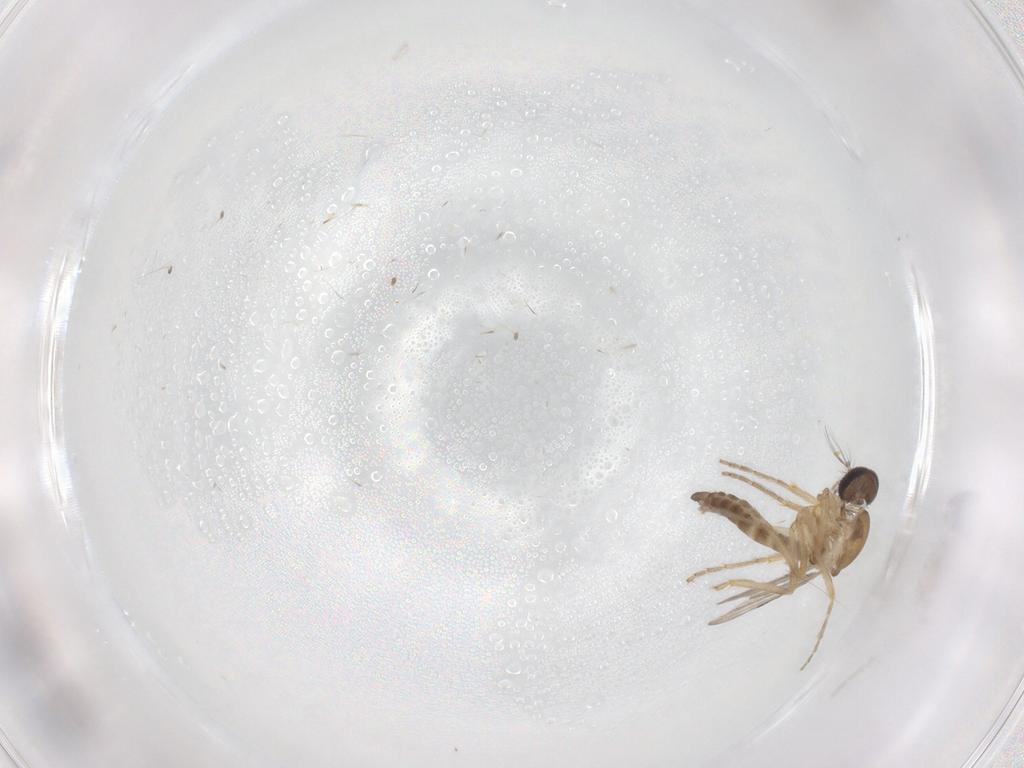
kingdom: Animalia
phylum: Arthropoda
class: Insecta
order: Diptera
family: Ceratopogonidae
